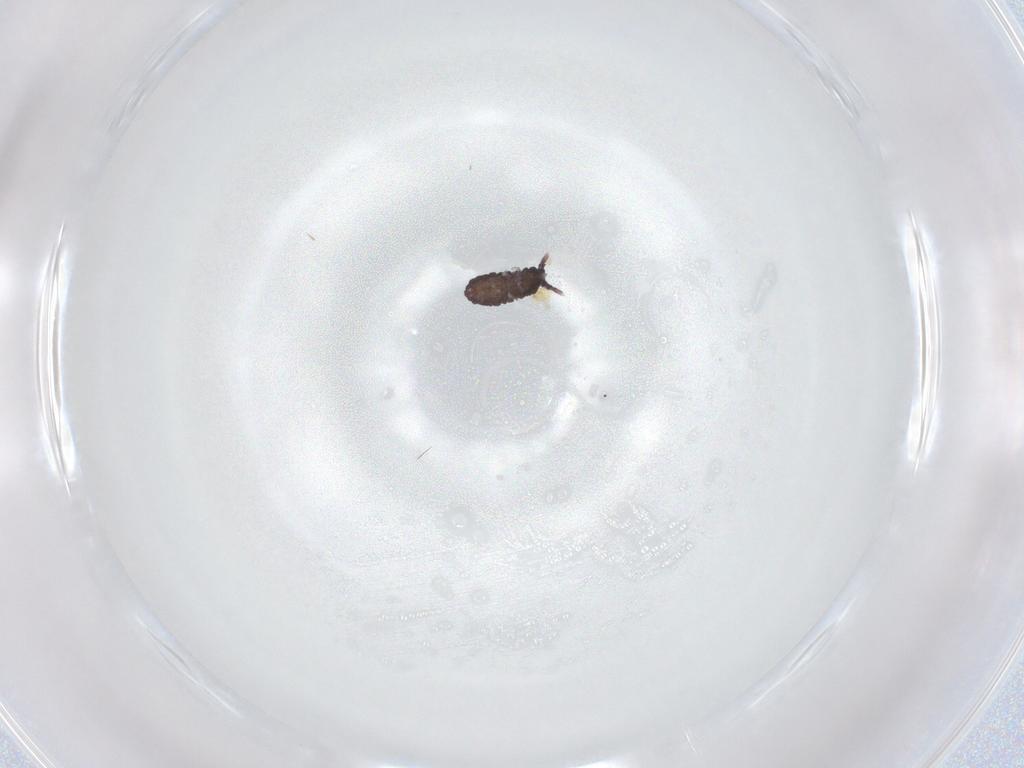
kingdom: Animalia
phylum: Arthropoda
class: Collembola
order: Poduromorpha
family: Neanuridae
